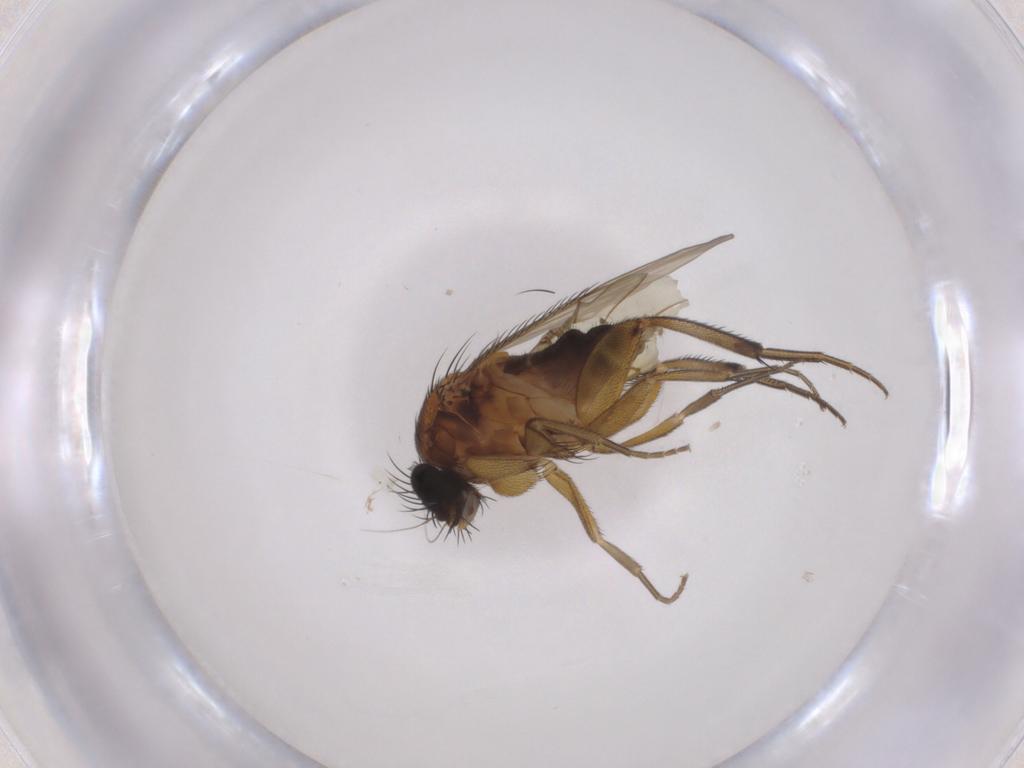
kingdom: Animalia
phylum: Arthropoda
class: Insecta
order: Diptera
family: Phoridae
